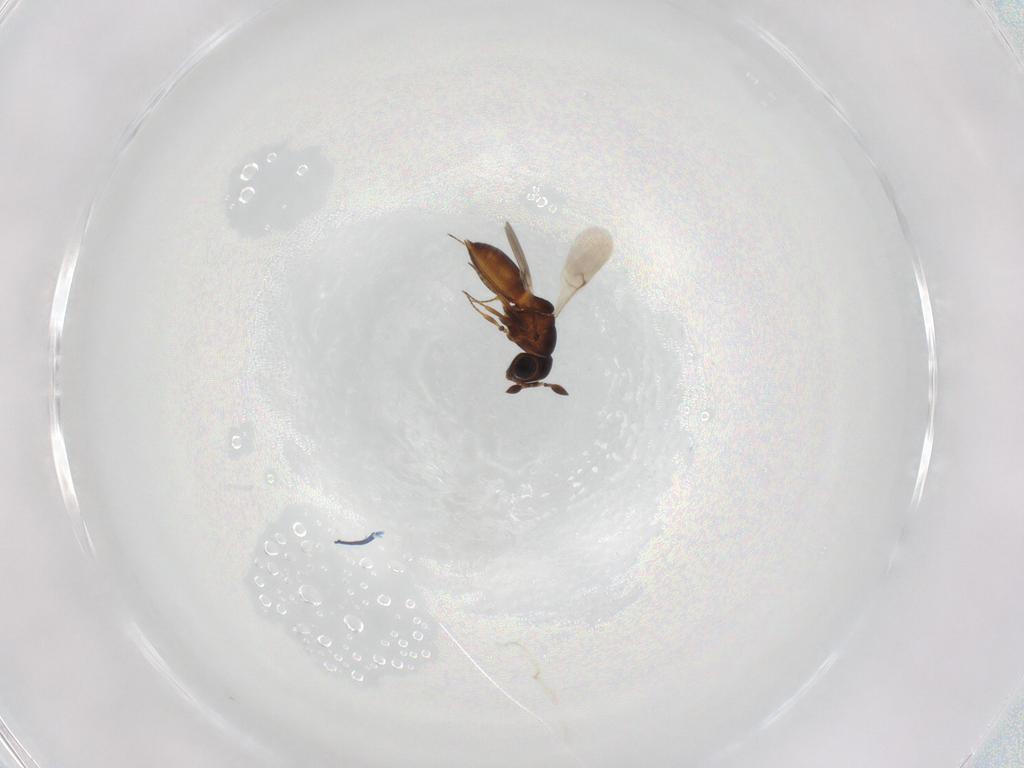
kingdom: Animalia
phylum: Arthropoda
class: Insecta
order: Hymenoptera
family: Scelionidae
